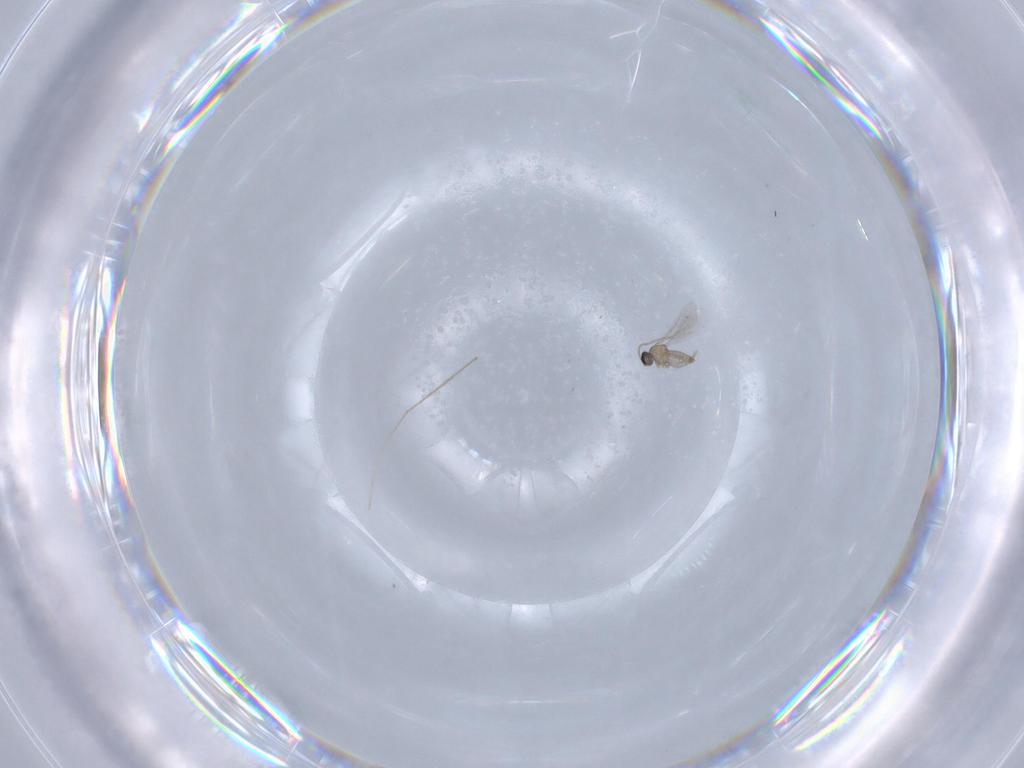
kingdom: Animalia
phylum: Arthropoda
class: Insecta
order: Diptera
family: Cecidomyiidae
